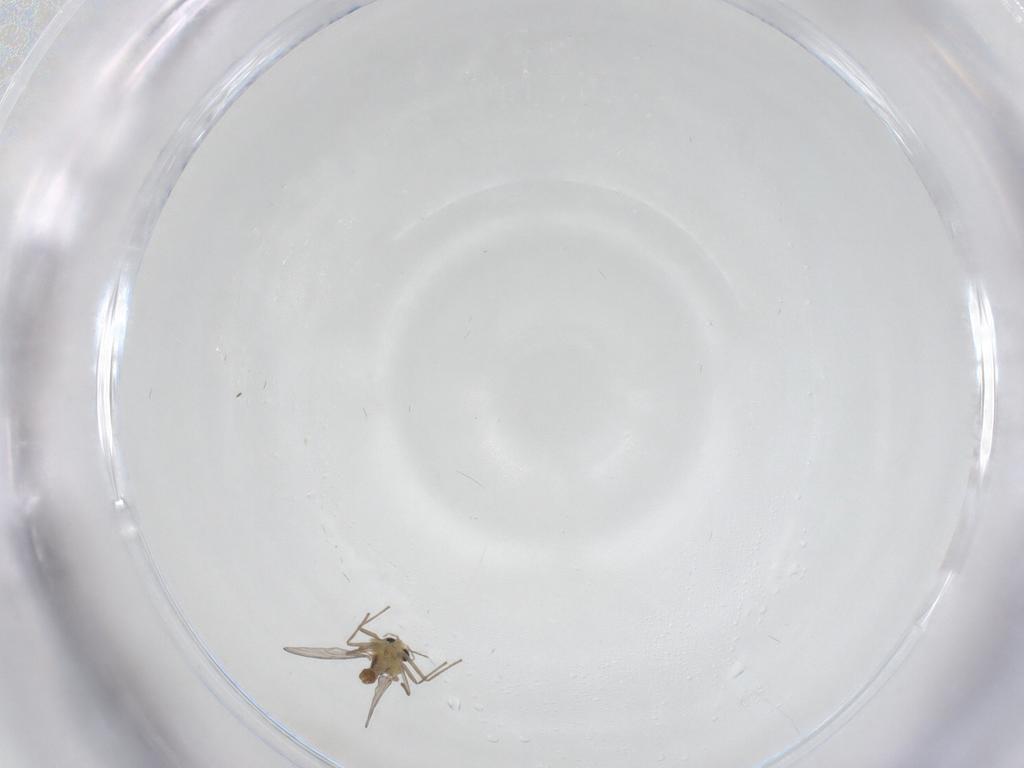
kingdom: Animalia
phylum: Arthropoda
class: Insecta
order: Diptera
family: Chironomidae
